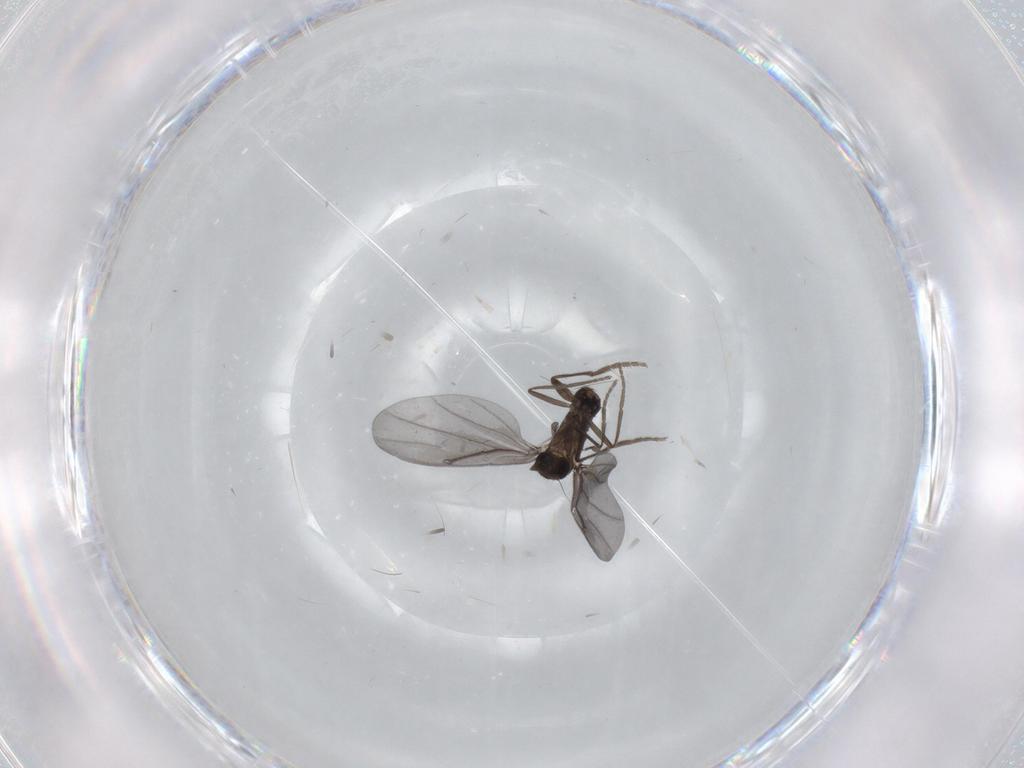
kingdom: Animalia
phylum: Arthropoda
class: Insecta
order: Diptera
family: Phoridae
